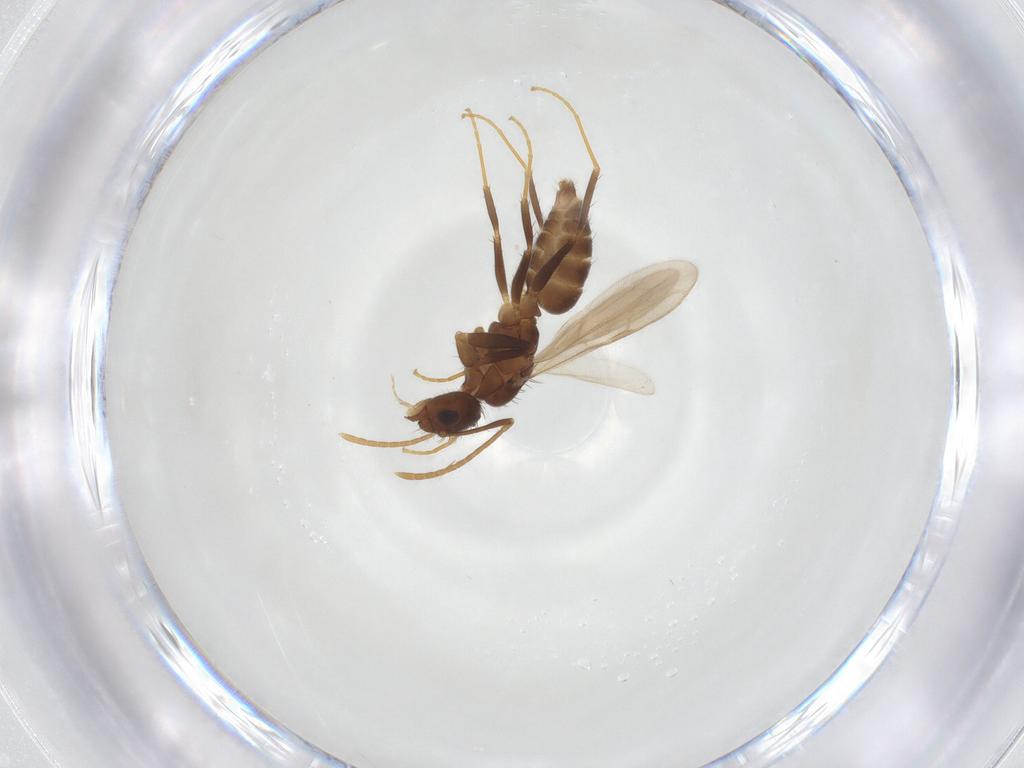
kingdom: Animalia
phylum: Arthropoda
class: Insecta
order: Hymenoptera
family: Formicidae
